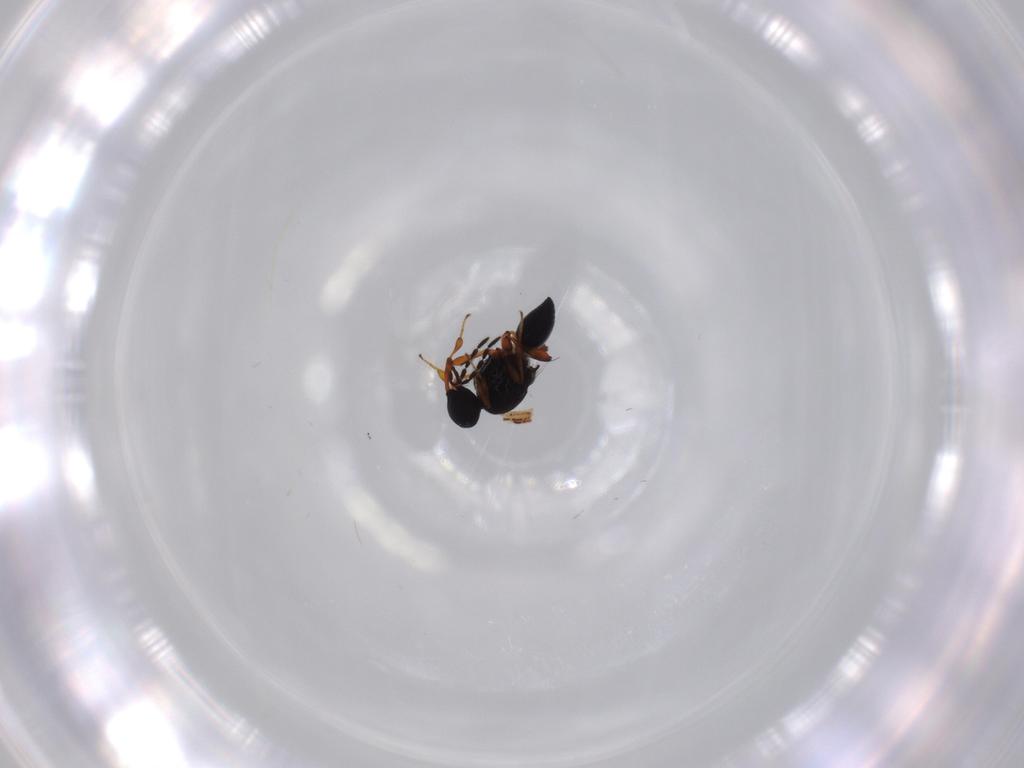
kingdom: Animalia
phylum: Arthropoda
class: Insecta
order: Hymenoptera
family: Platygastridae
